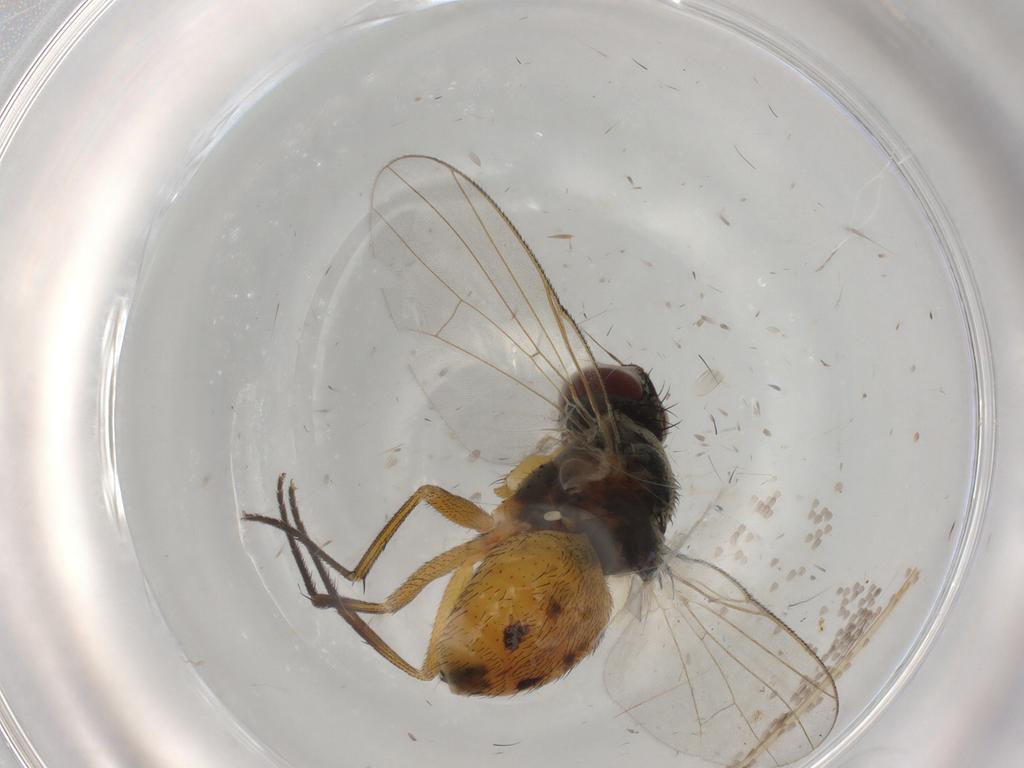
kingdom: Animalia
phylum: Arthropoda
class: Insecta
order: Diptera
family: Muscidae
